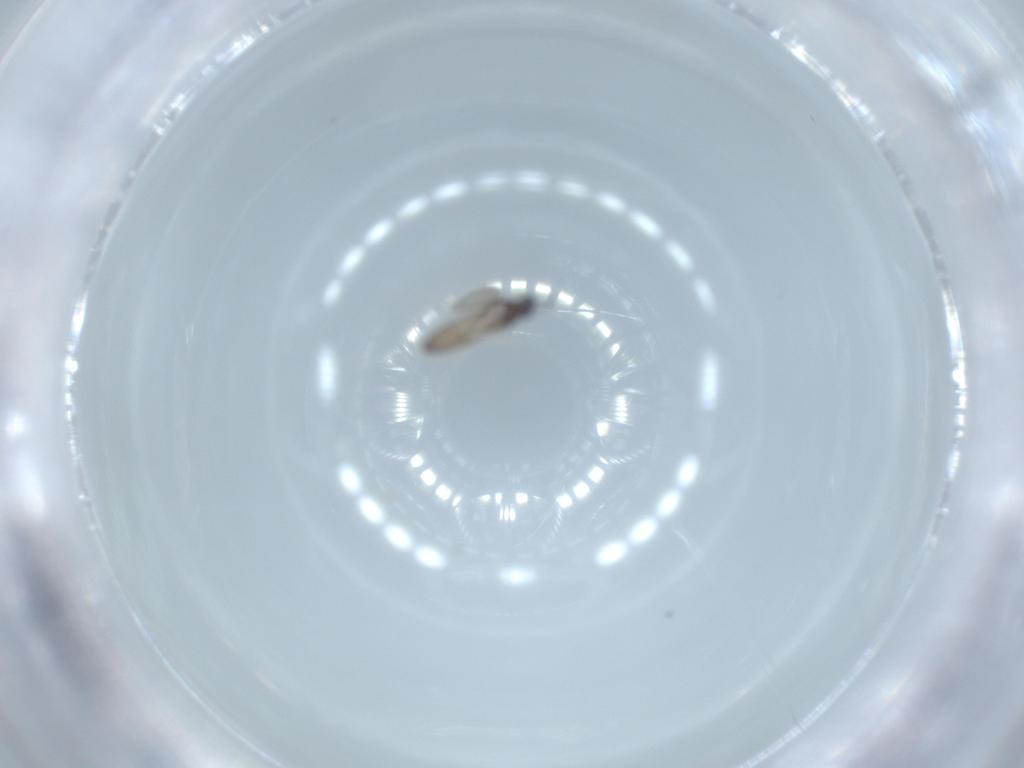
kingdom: Animalia
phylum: Arthropoda
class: Insecta
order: Diptera
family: Cecidomyiidae
